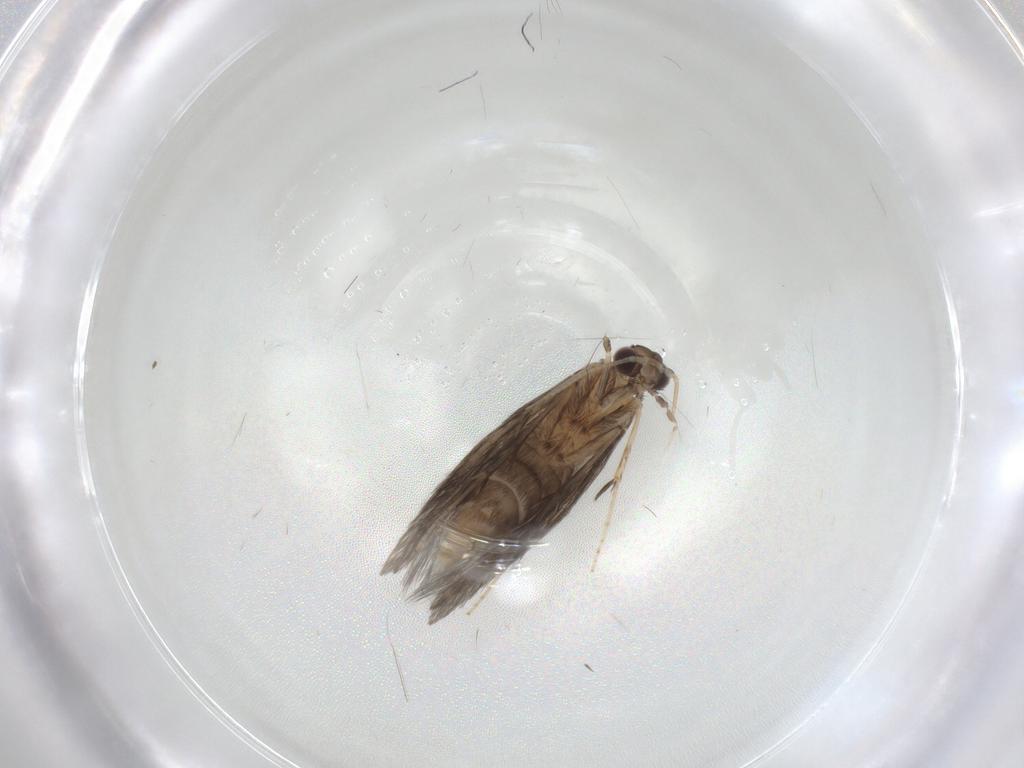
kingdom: Animalia
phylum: Arthropoda
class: Insecta
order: Trichoptera
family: Hydroptilidae
